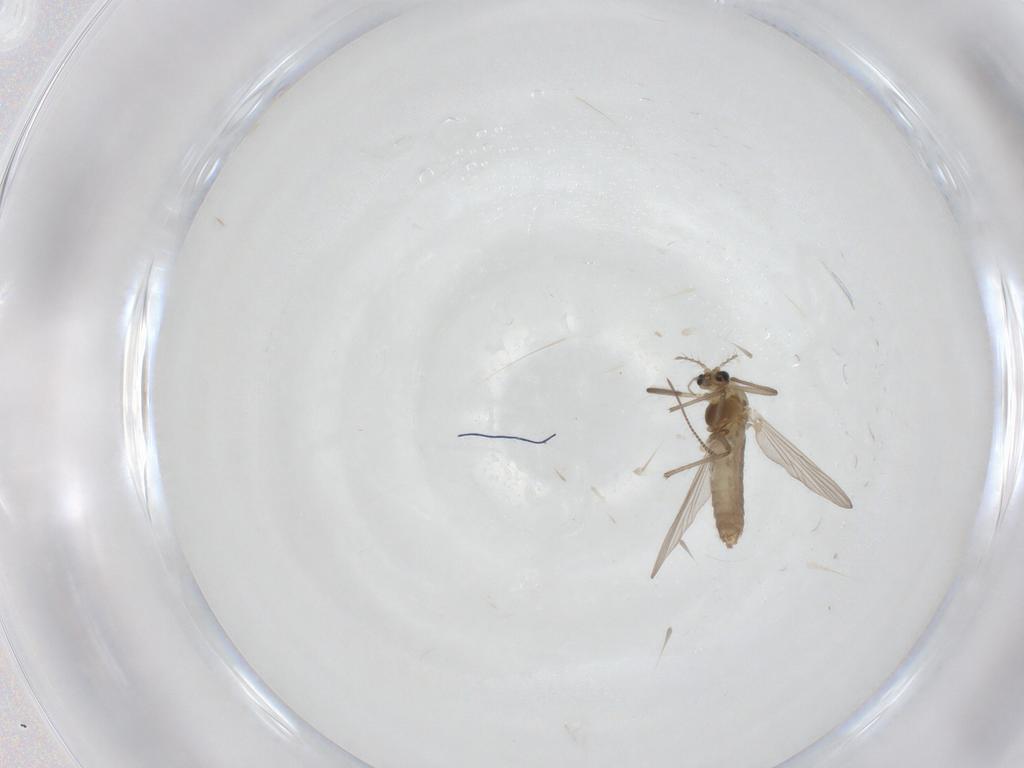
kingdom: Animalia
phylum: Arthropoda
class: Insecta
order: Diptera
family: Chironomidae
